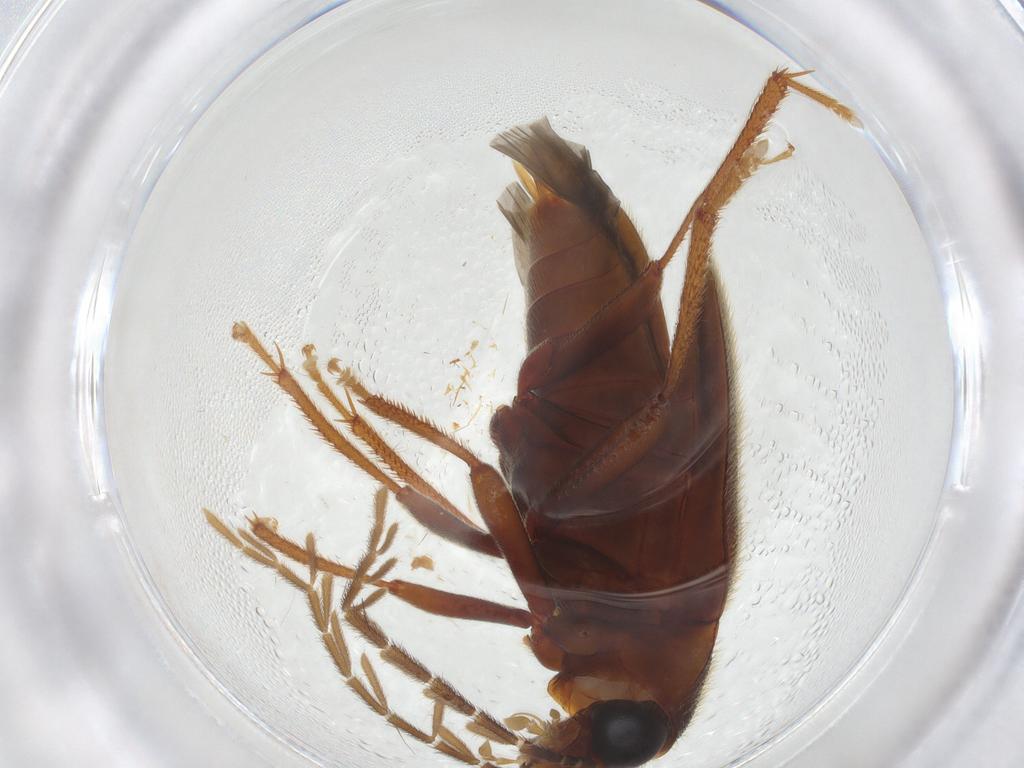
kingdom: Animalia
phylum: Arthropoda
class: Insecta
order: Coleoptera
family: Ptilodactylidae
